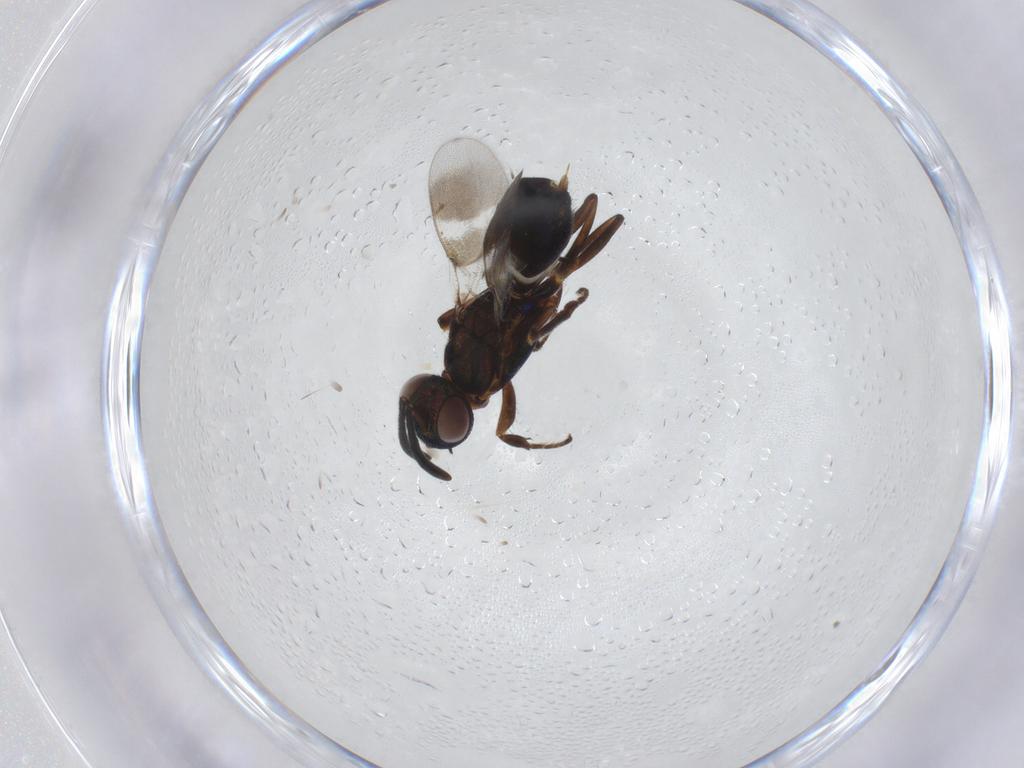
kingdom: Animalia
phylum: Arthropoda
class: Insecta
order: Hymenoptera
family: Eupelmidae
